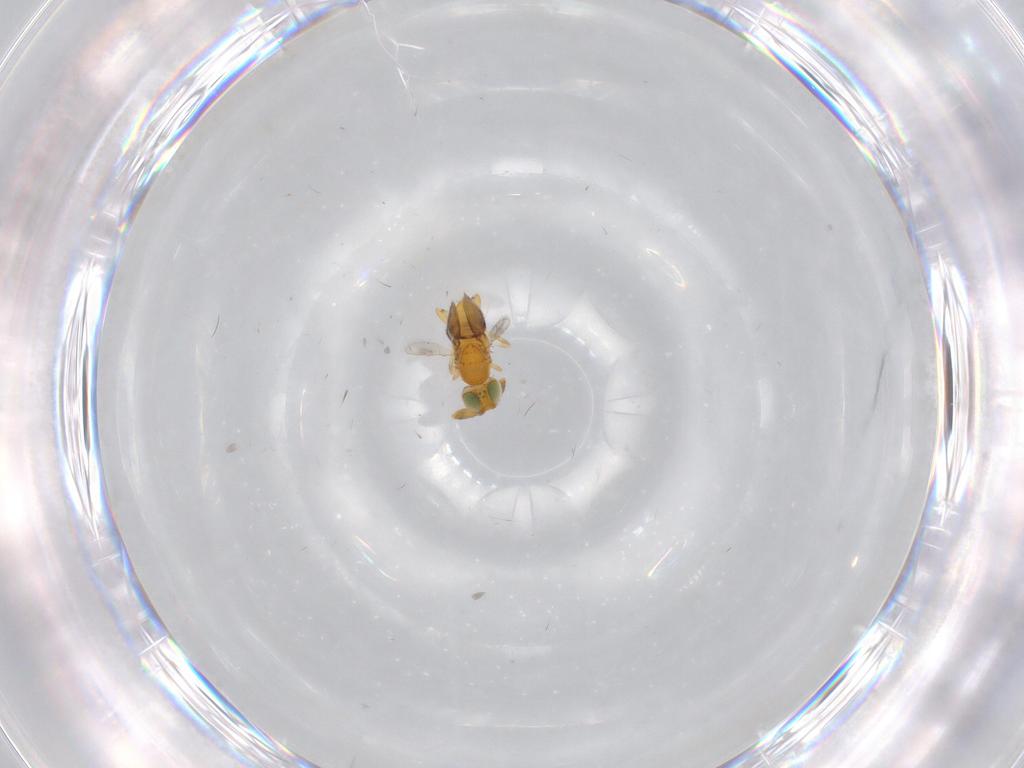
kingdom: Animalia
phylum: Arthropoda
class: Insecta
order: Hymenoptera
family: Encyrtidae
